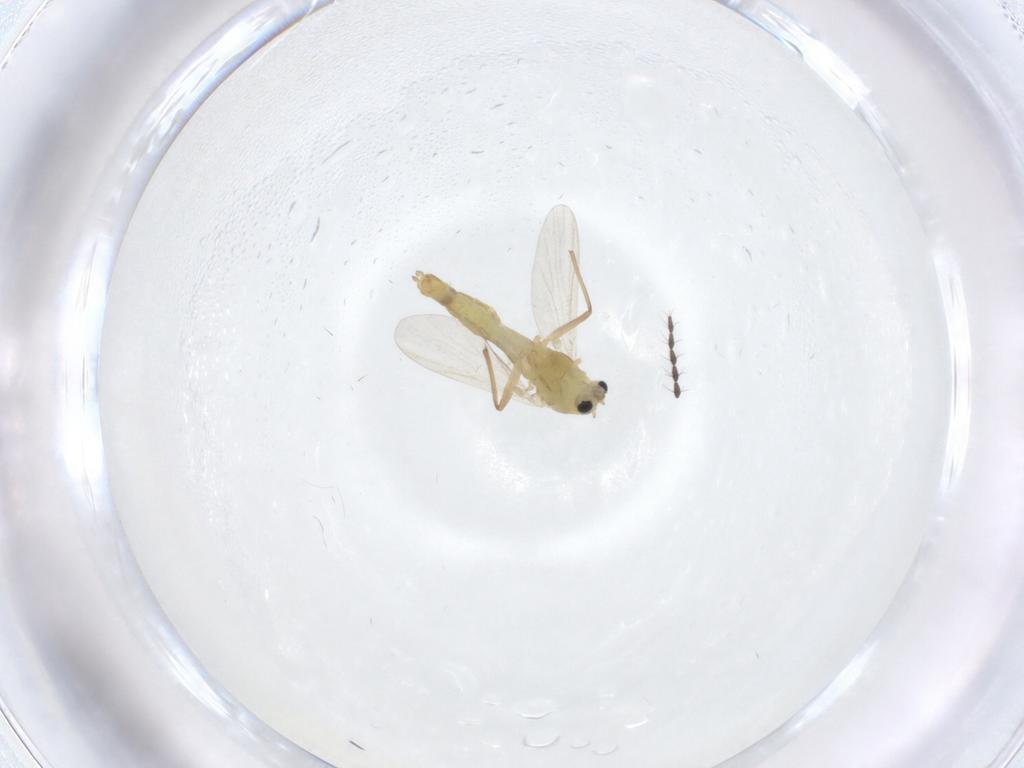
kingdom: Animalia
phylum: Arthropoda
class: Insecta
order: Diptera
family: Chironomidae
